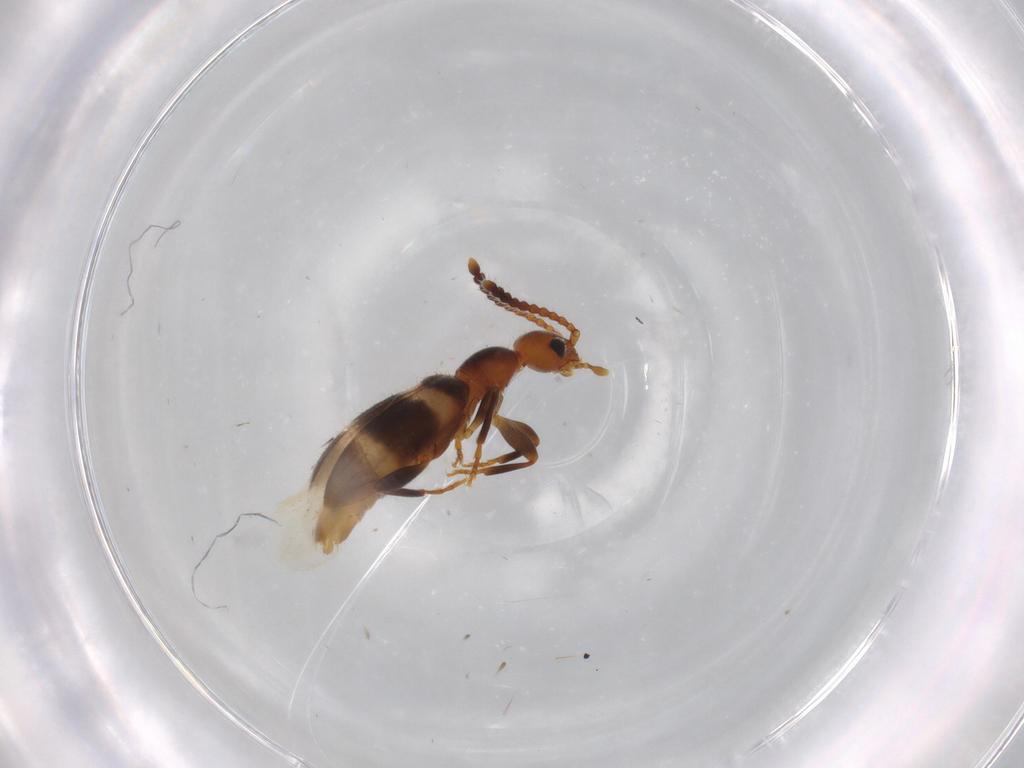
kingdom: Animalia
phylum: Arthropoda
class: Insecta
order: Coleoptera
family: Anthicidae
